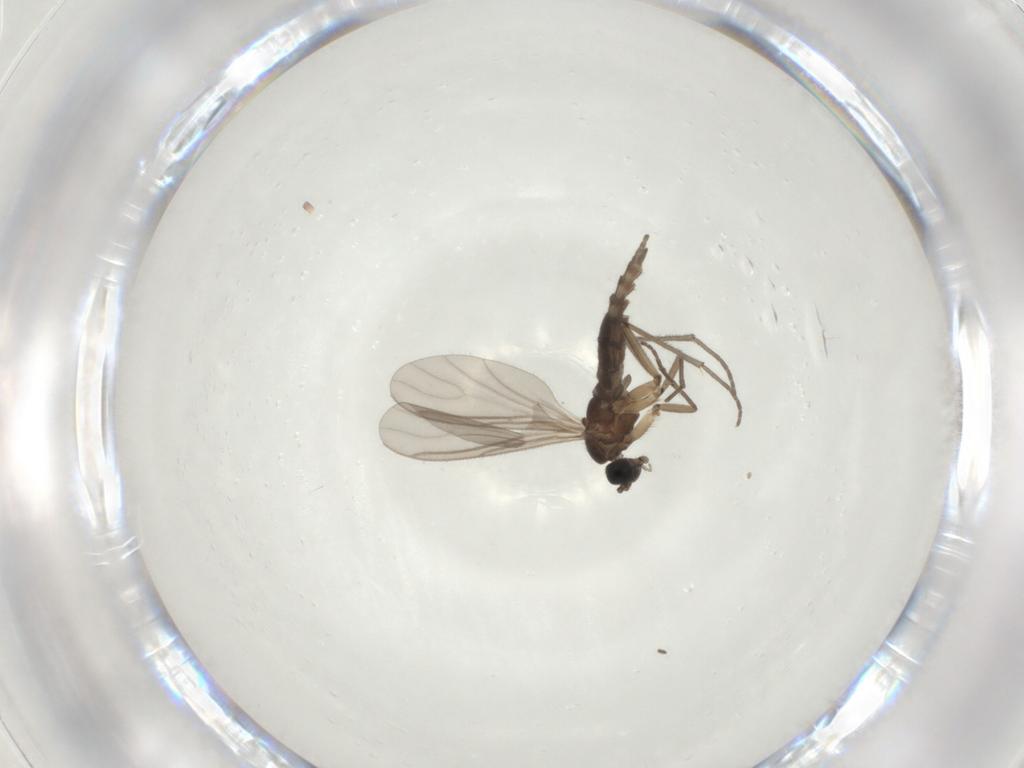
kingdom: Animalia
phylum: Arthropoda
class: Insecta
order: Diptera
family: Sciaridae
